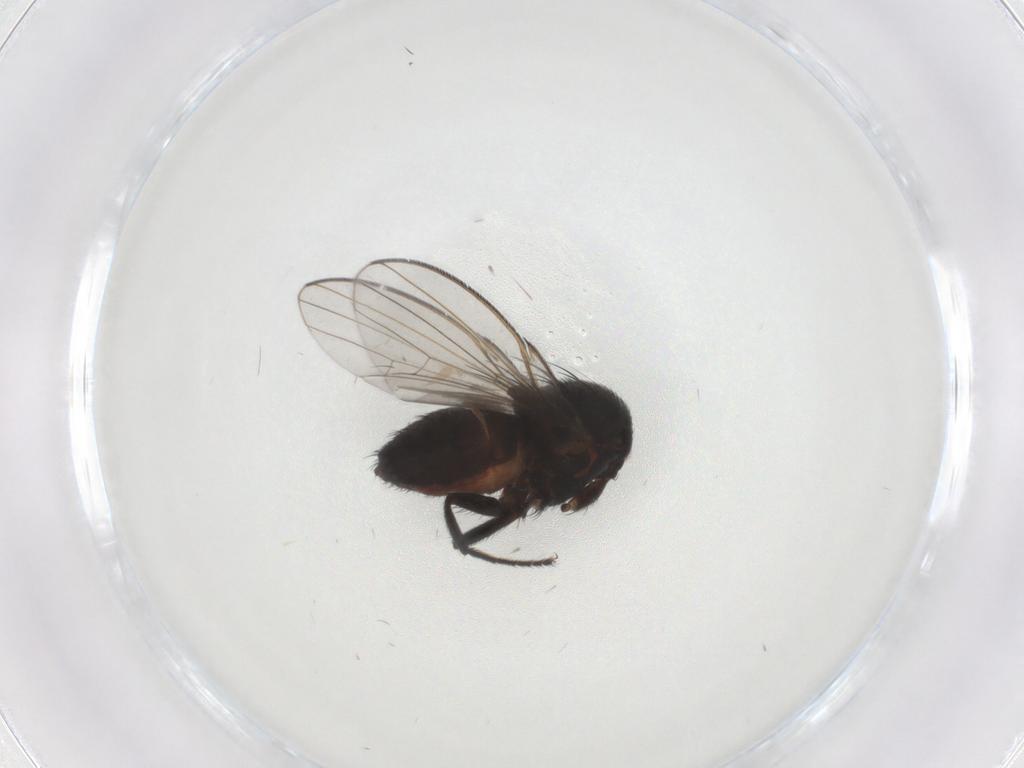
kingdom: Animalia
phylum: Arthropoda
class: Insecta
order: Diptera
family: Milichiidae
